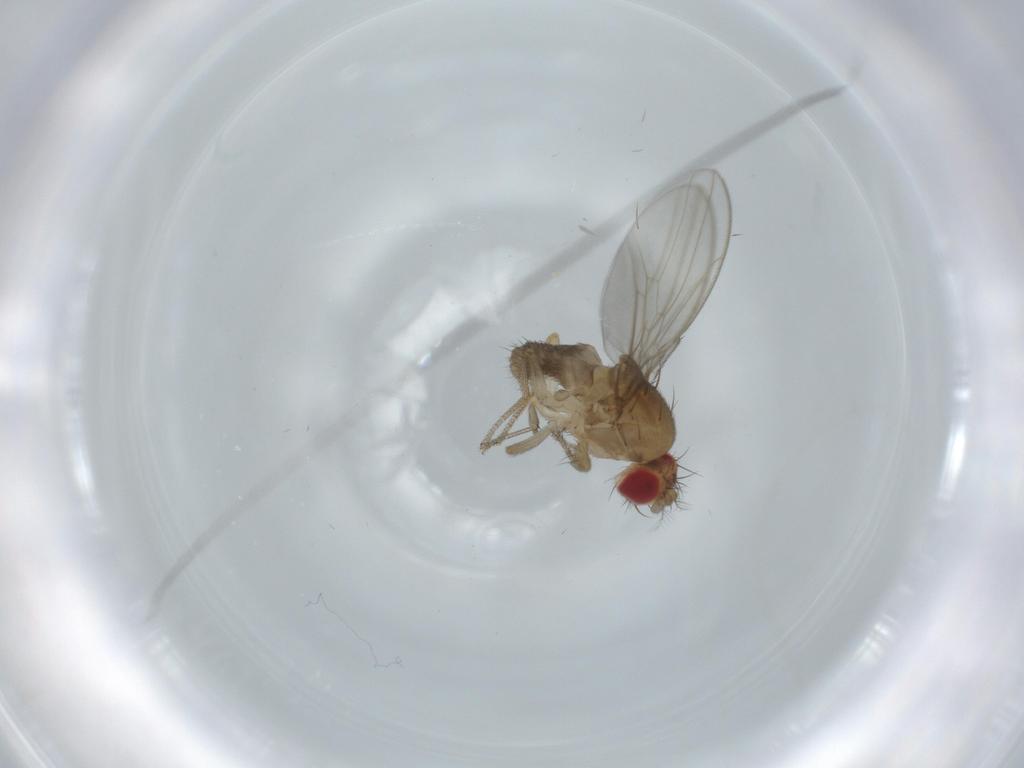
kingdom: Animalia
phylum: Arthropoda
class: Insecta
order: Diptera
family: Drosophilidae
